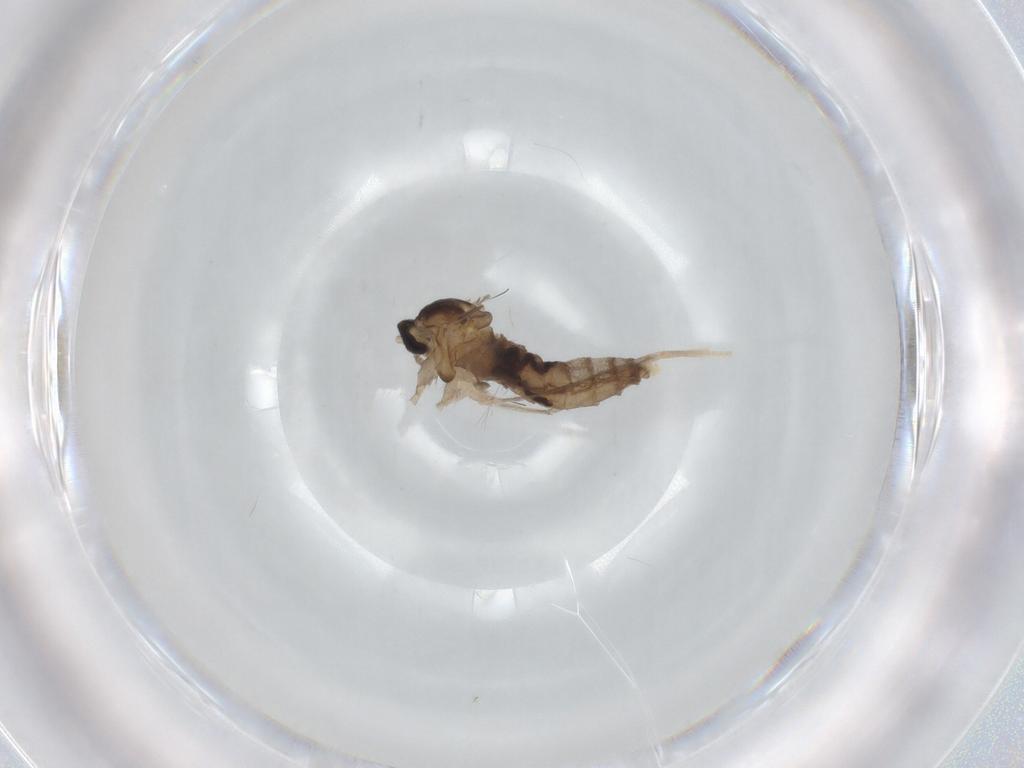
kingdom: Animalia
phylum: Arthropoda
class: Insecta
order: Diptera
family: Cecidomyiidae
